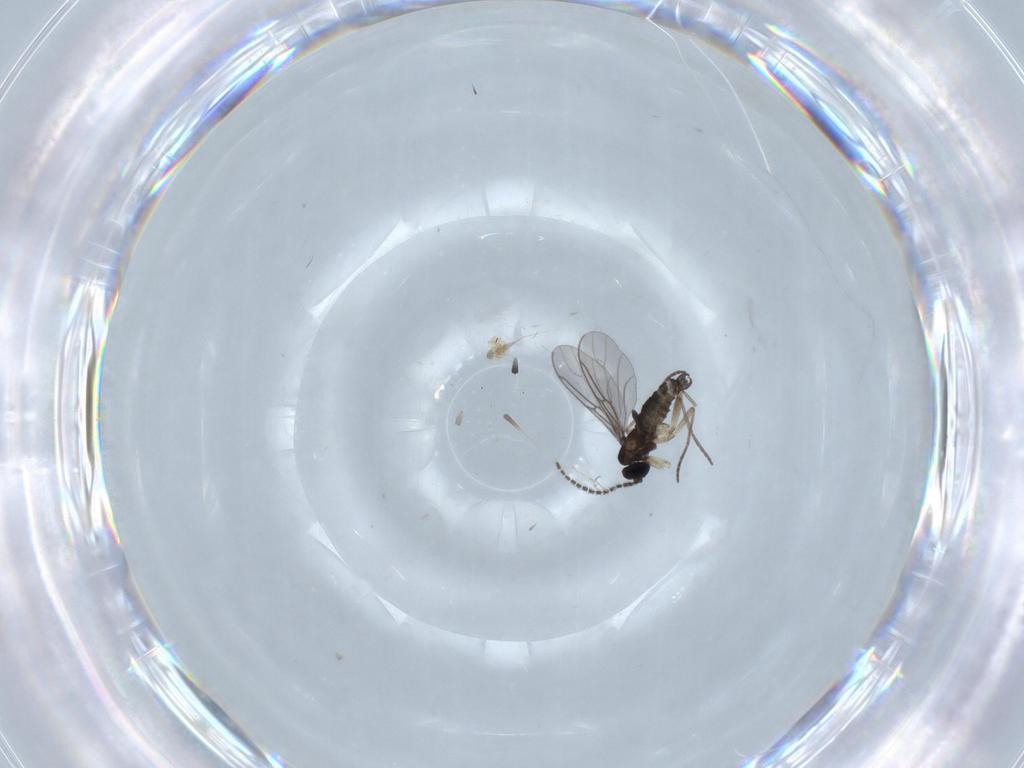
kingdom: Animalia
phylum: Arthropoda
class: Insecta
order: Diptera
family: Sciaridae
